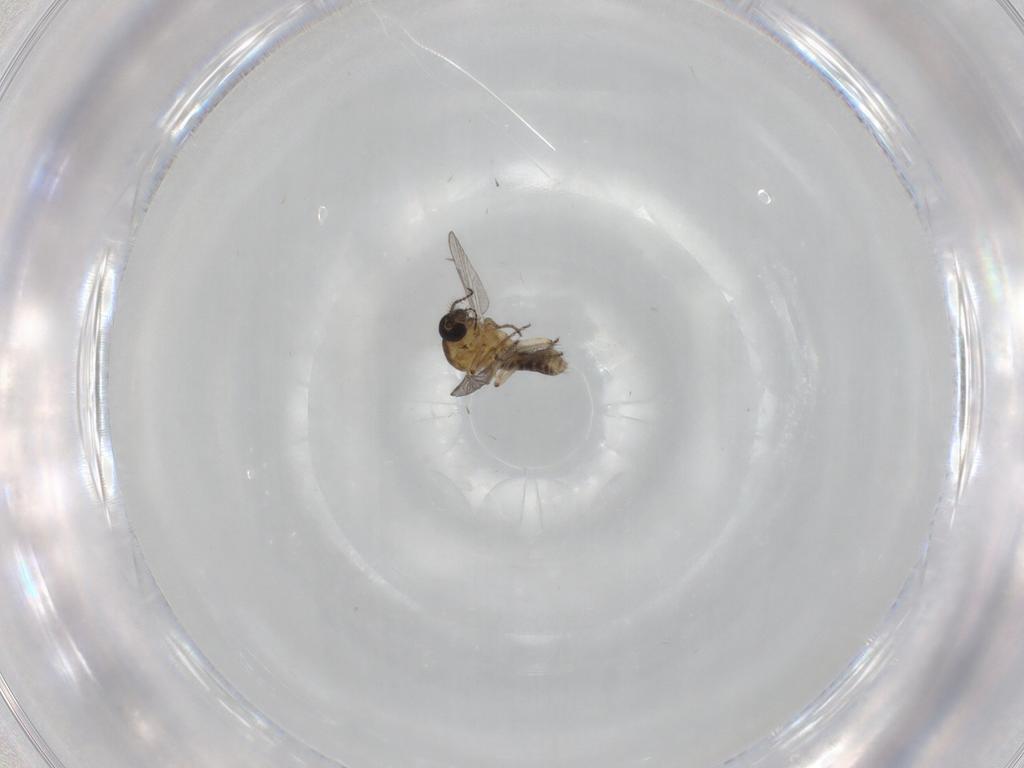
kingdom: Animalia
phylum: Arthropoda
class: Insecta
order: Diptera
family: Ceratopogonidae
